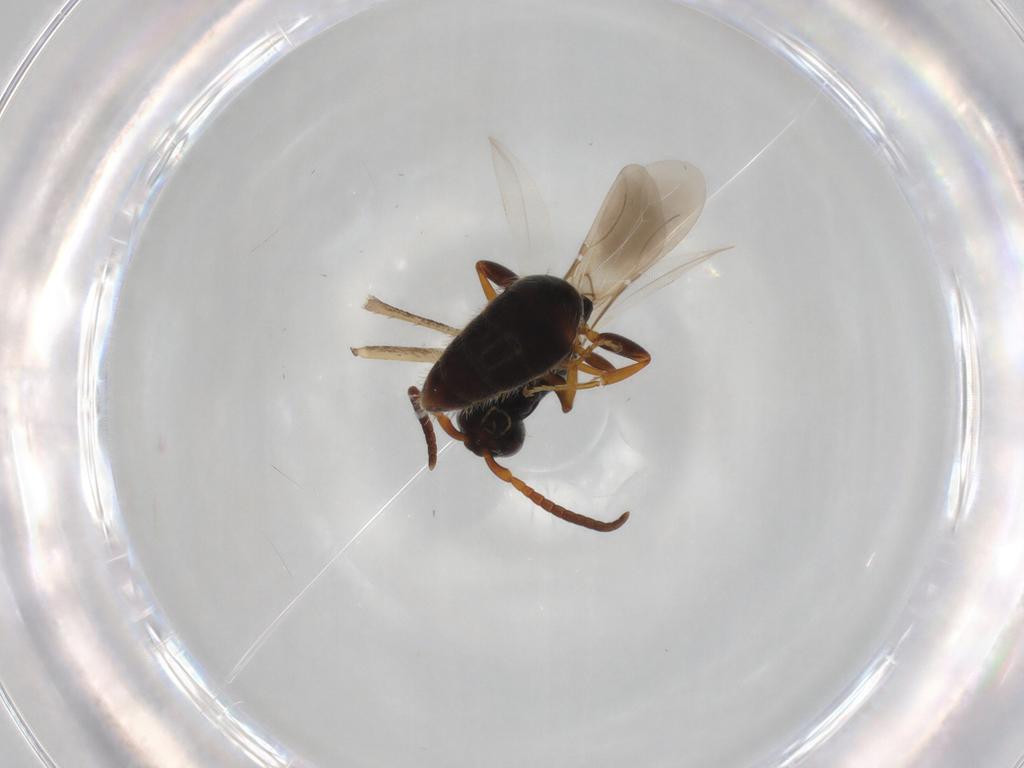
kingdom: Animalia
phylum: Arthropoda
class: Insecta
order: Hymenoptera
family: Bethylidae
